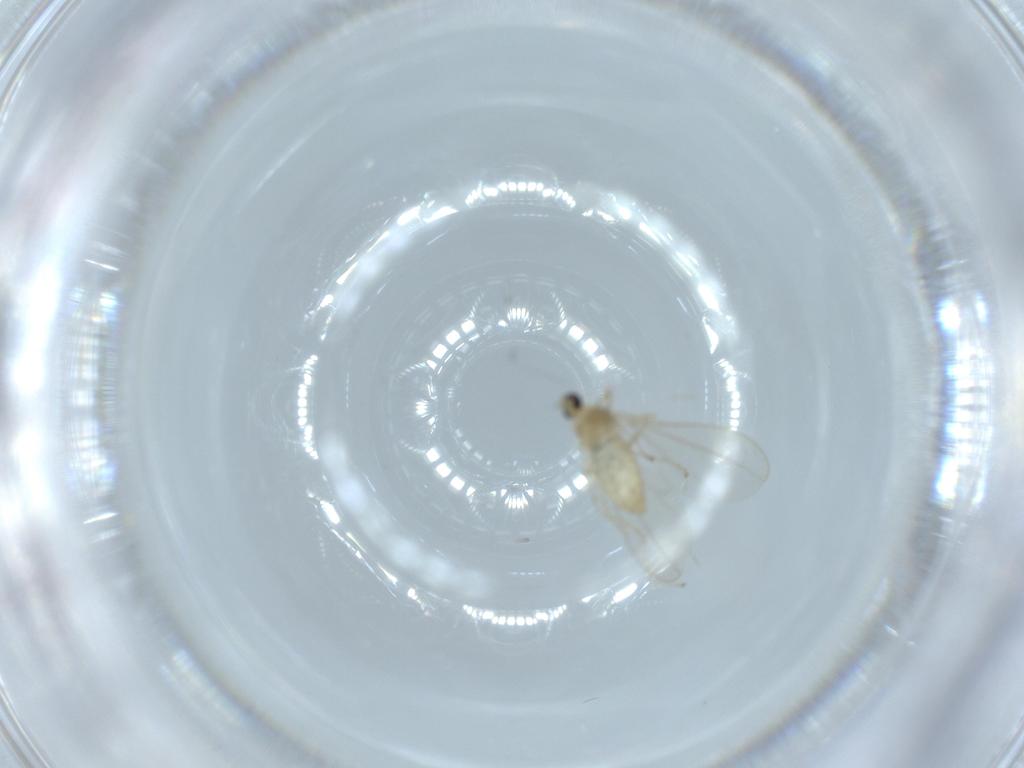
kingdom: Animalia
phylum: Arthropoda
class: Insecta
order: Diptera
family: Cecidomyiidae
